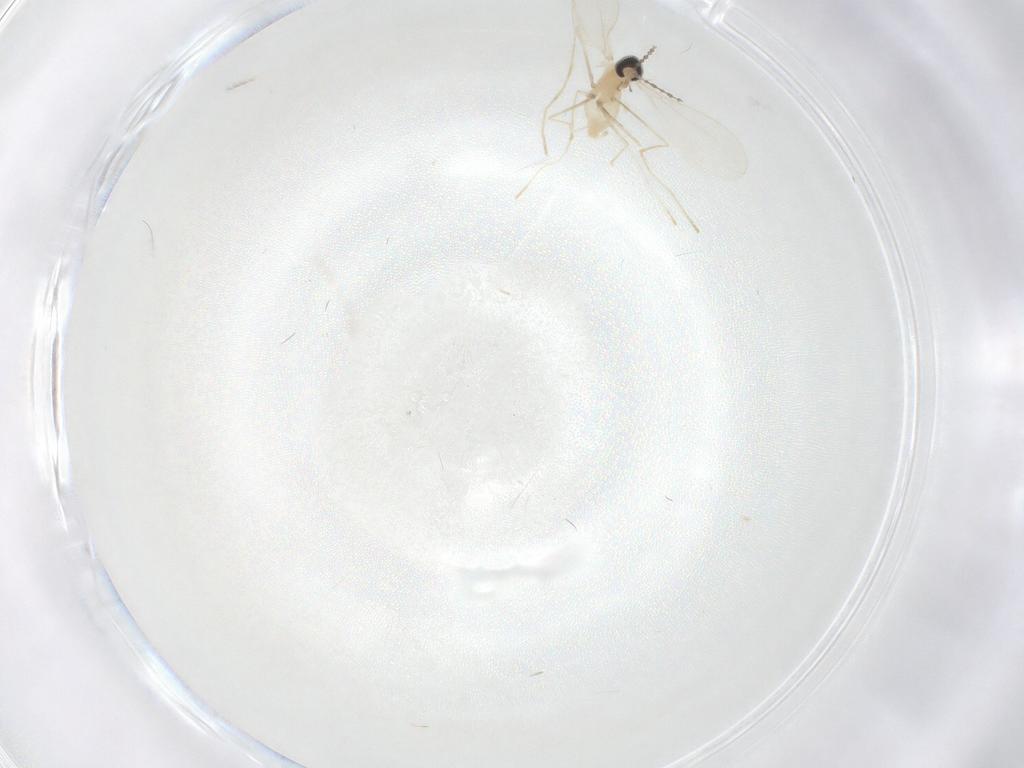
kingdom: Animalia
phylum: Arthropoda
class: Insecta
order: Diptera
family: Cecidomyiidae
